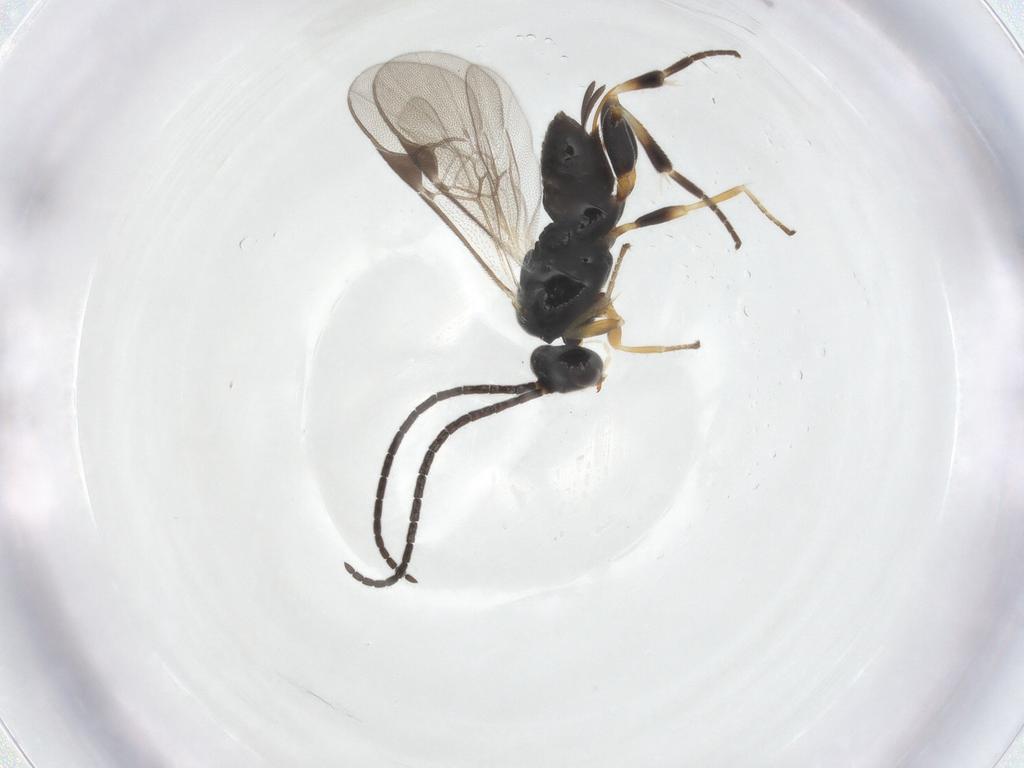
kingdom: Animalia
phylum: Arthropoda
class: Insecta
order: Hymenoptera
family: Braconidae
